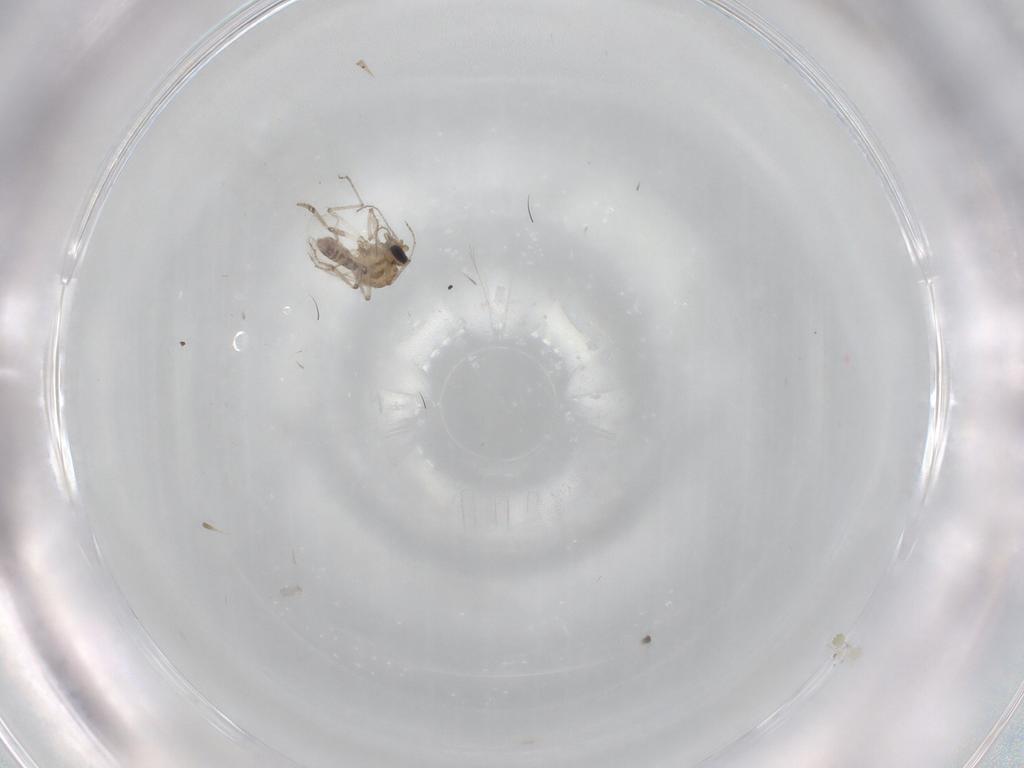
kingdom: Animalia
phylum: Arthropoda
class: Insecta
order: Diptera
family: Ceratopogonidae
